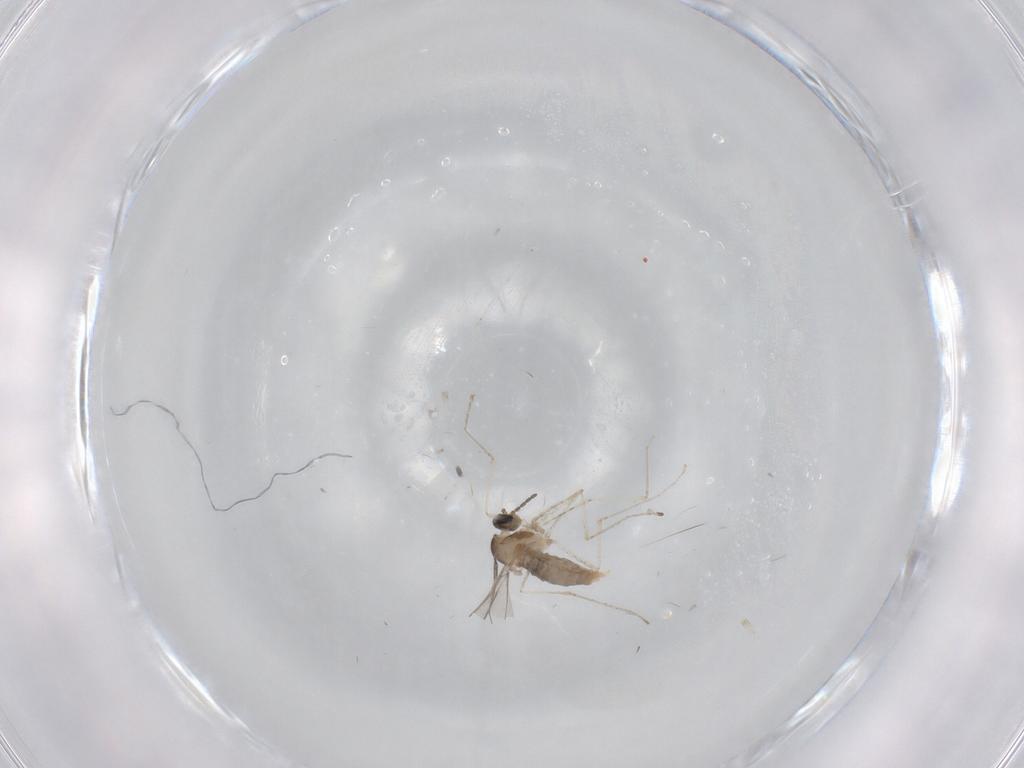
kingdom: Animalia
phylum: Arthropoda
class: Insecta
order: Diptera
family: Cecidomyiidae
